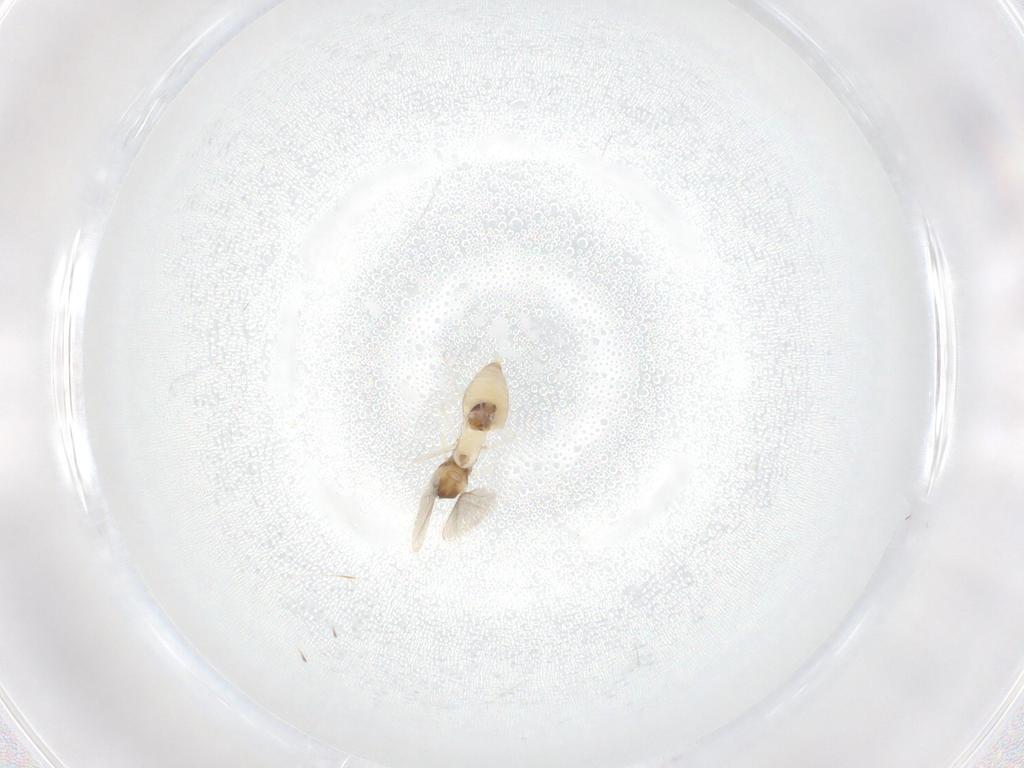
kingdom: Animalia
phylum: Arthropoda
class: Insecta
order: Diptera
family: Cecidomyiidae
